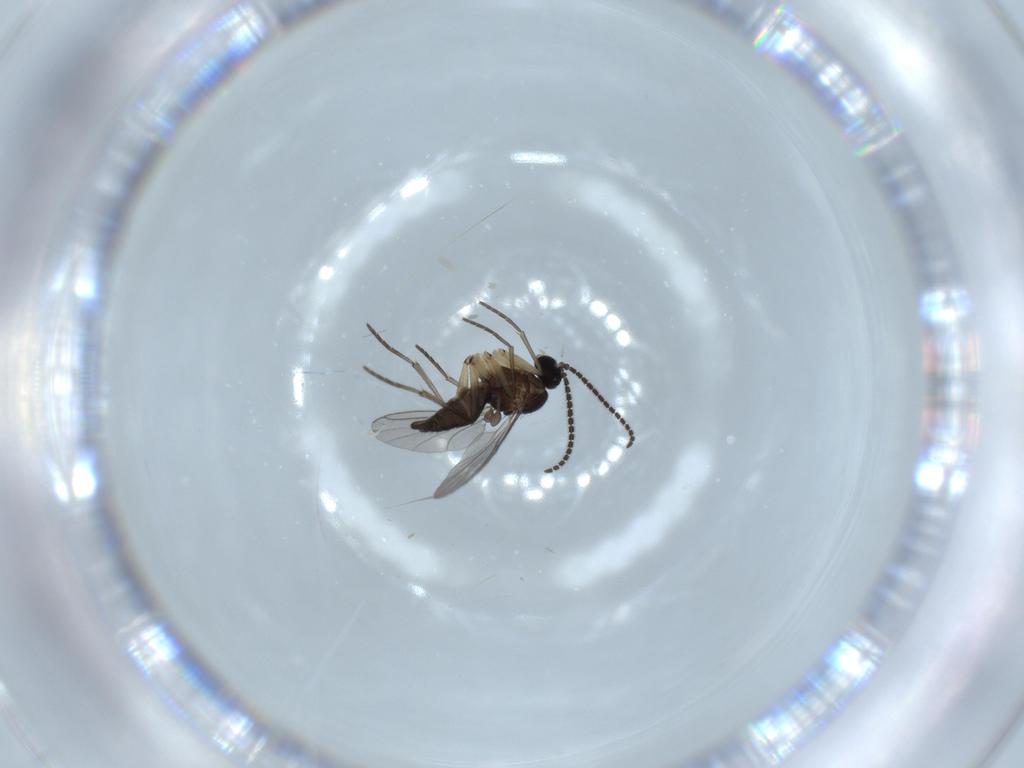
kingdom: Animalia
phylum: Arthropoda
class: Insecta
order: Diptera
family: Sciaridae
